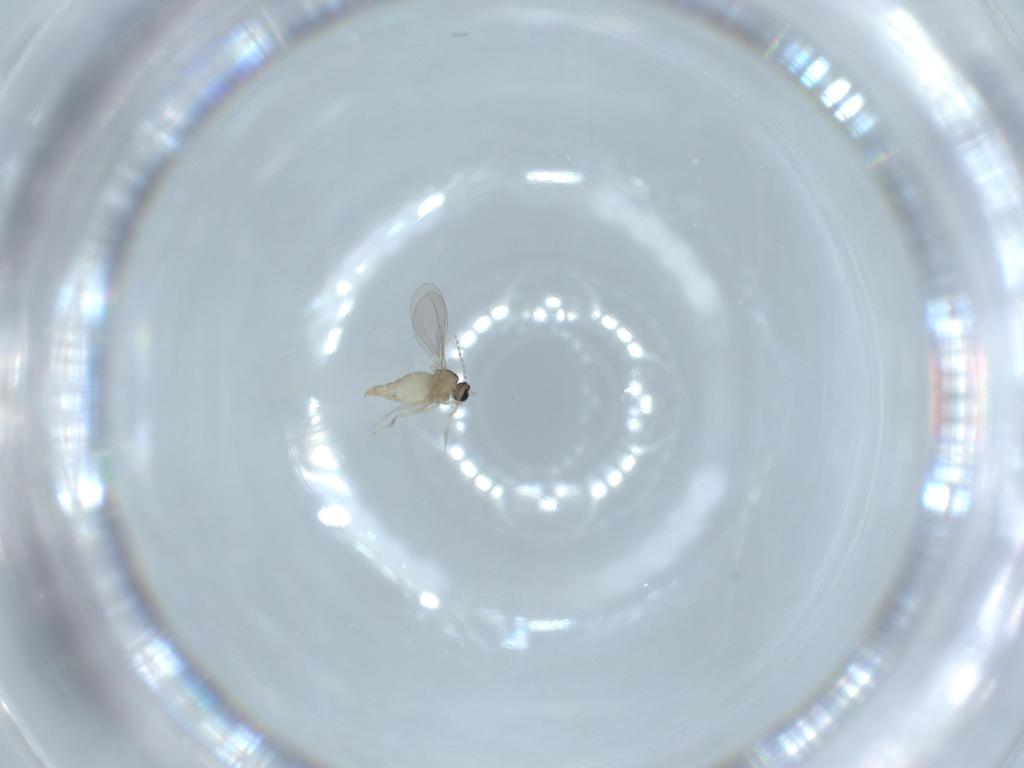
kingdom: Animalia
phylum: Arthropoda
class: Insecta
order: Diptera
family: Cecidomyiidae
